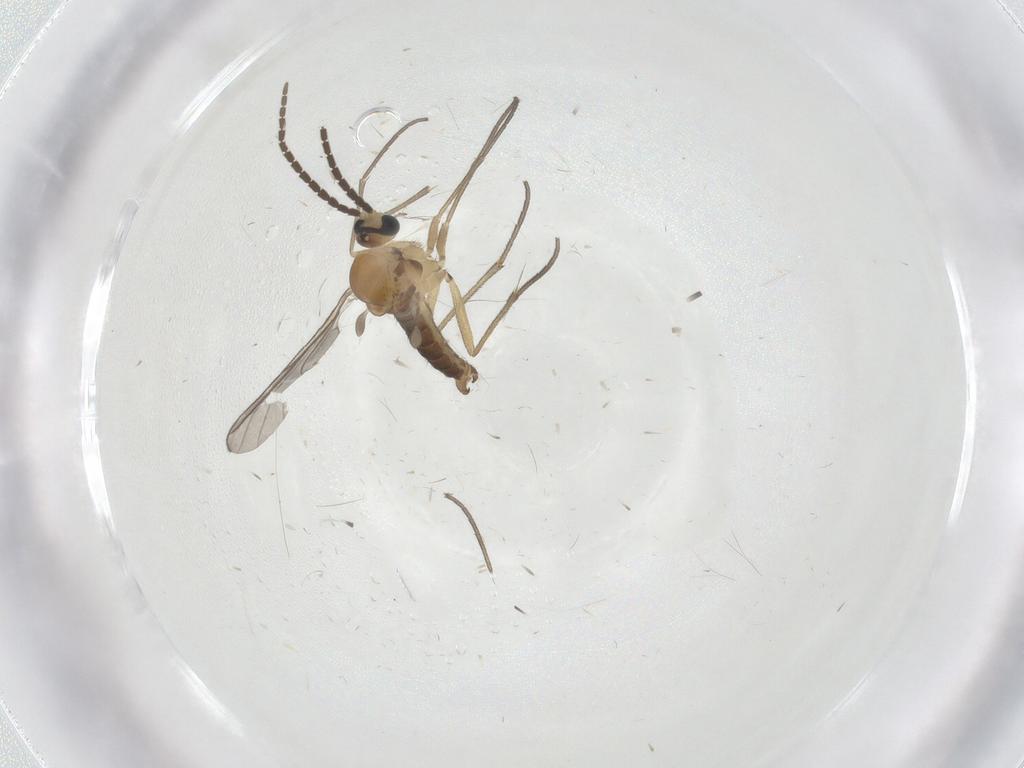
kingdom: Animalia
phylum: Arthropoda
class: Insecta
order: Diptera
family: Sciaridae
